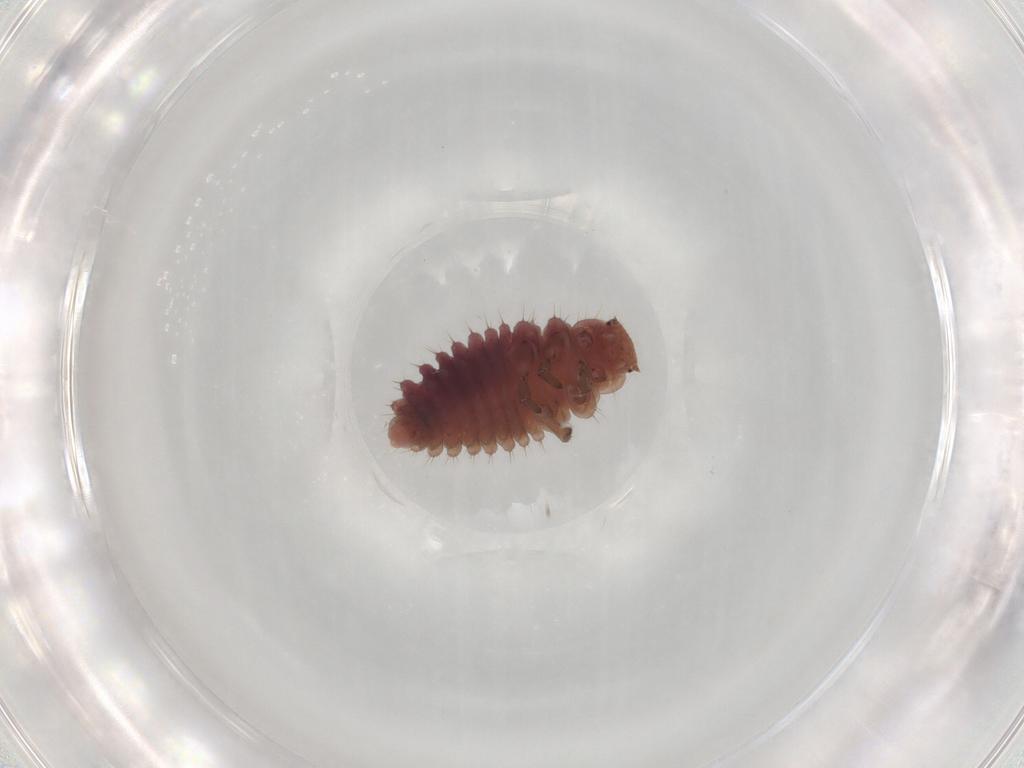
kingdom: Animalia
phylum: Arthropoda
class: Insecta
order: Coleoptera
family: Coccinellidae
